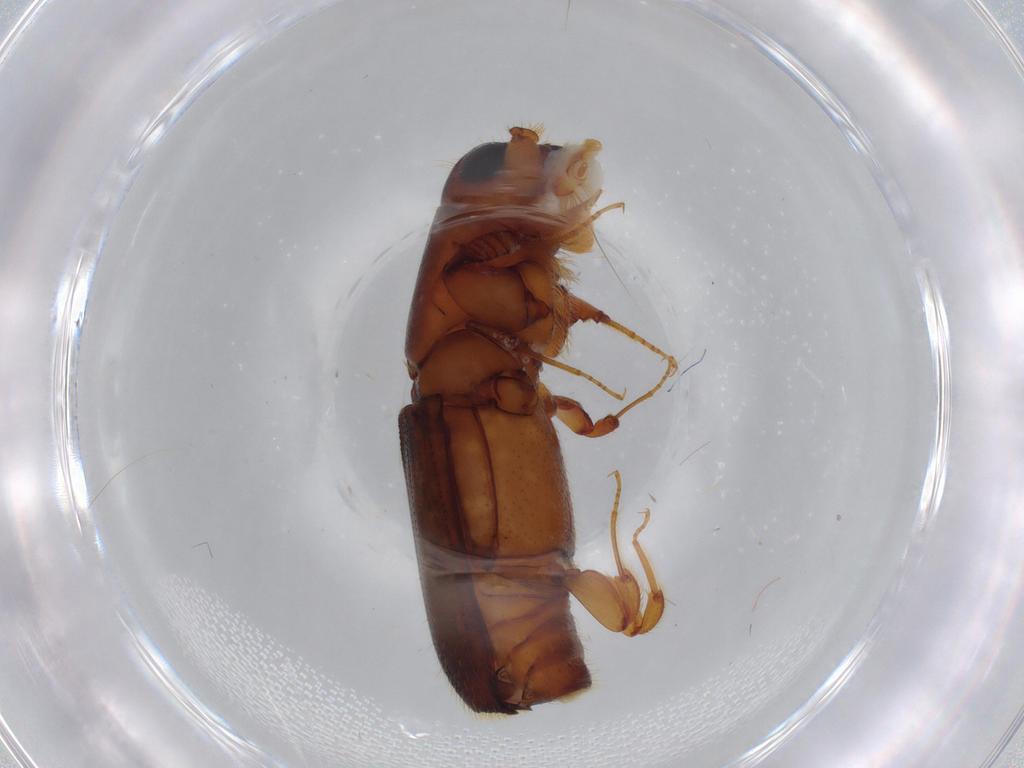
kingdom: Animalia
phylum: Arthropoda
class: Insecta
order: Coleoptera
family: Curculionidae
